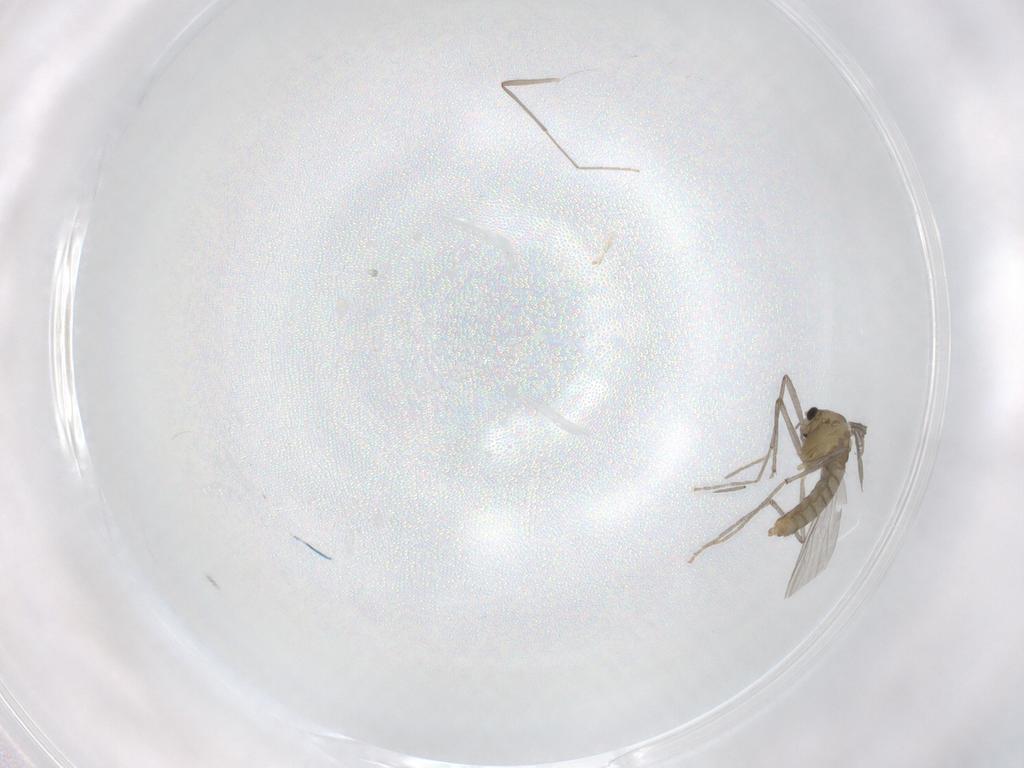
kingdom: Animalia
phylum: Arthropoda
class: Insecta
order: Diptera
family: Chironomidae
